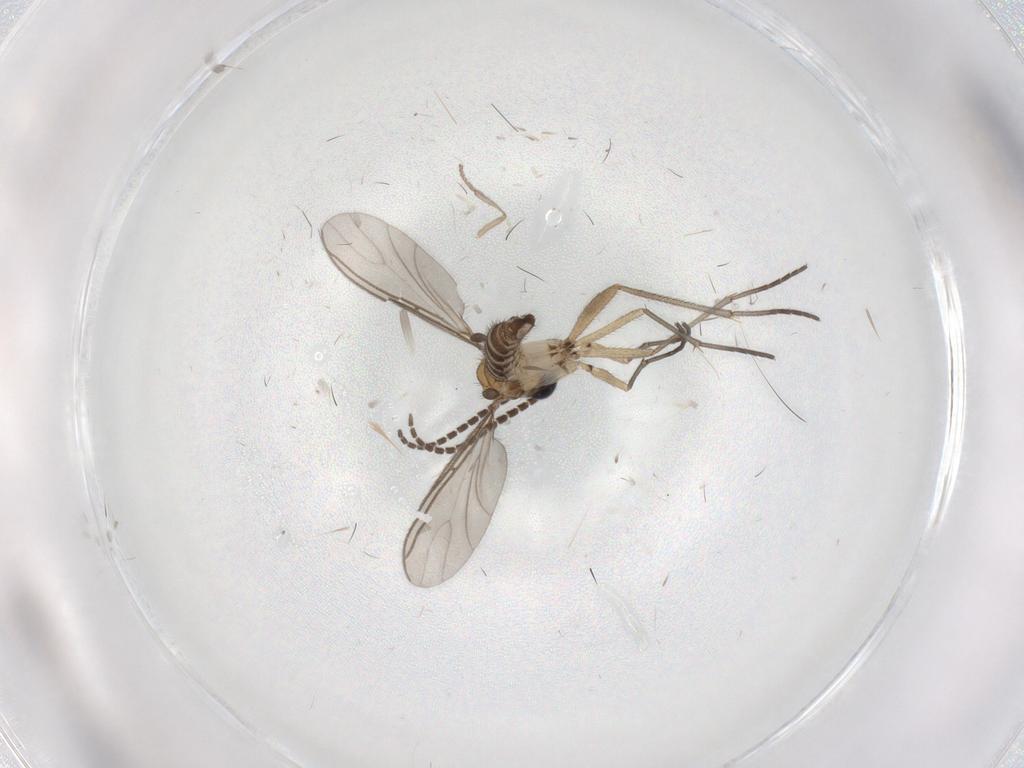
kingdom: Animalia
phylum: Arthropoda
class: Insecta
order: Diptera
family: Sciaridae
